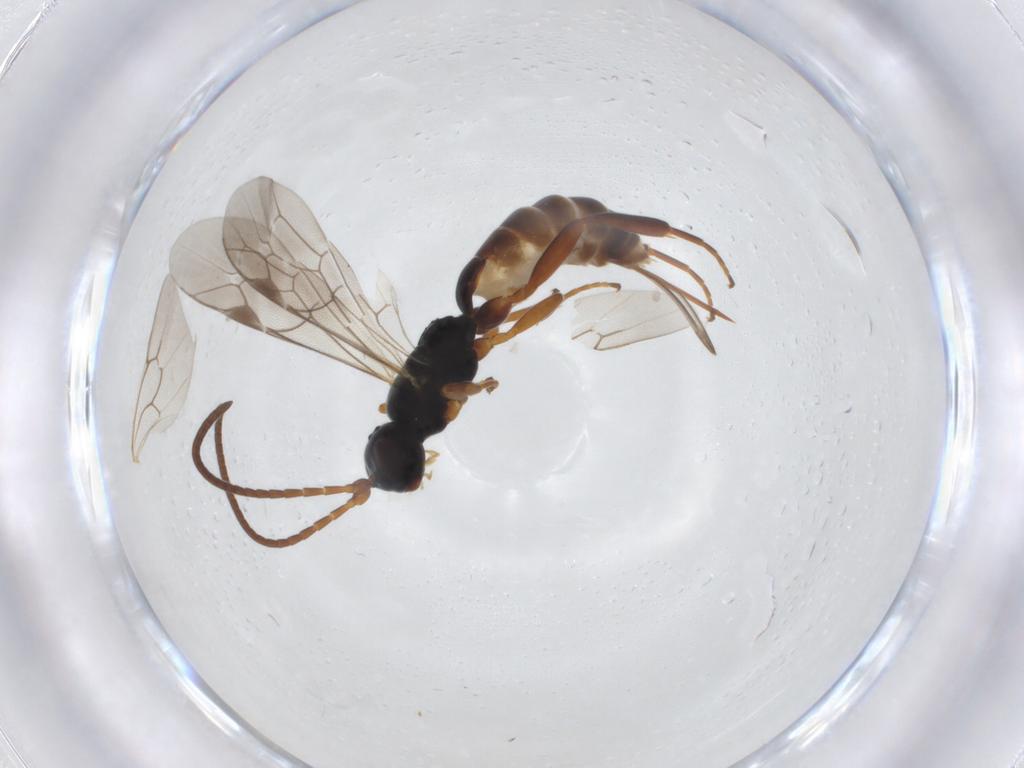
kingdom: Animalia
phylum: Arthropoda
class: Insecta
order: Hymenoptera
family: Ichneumonidae
